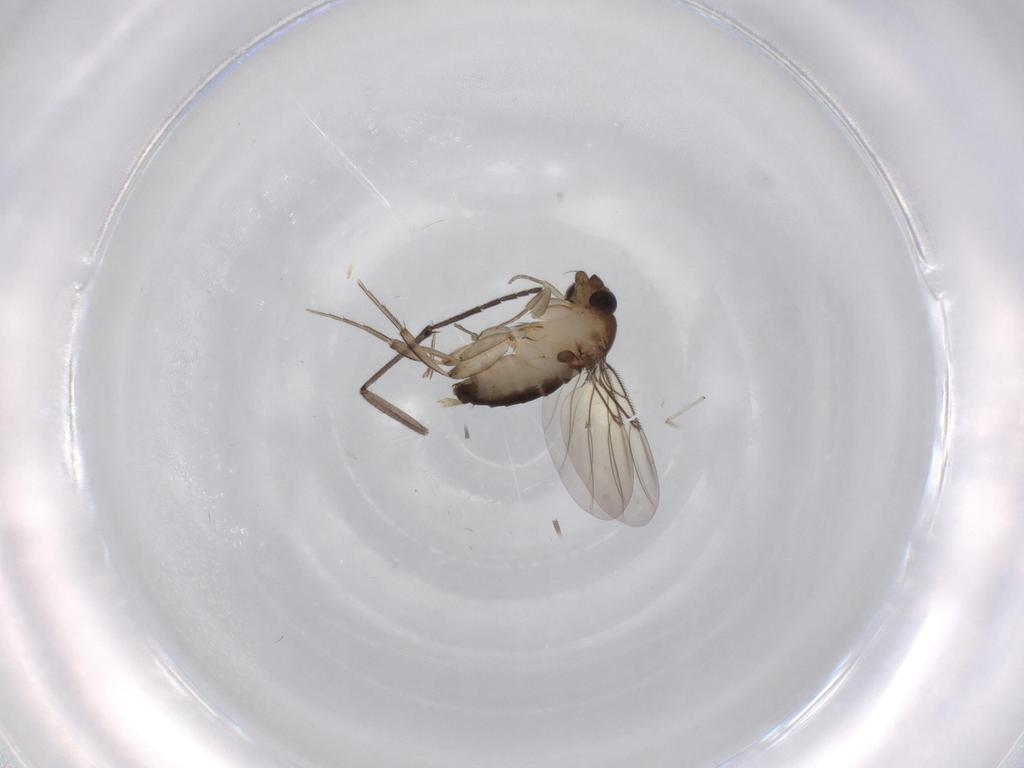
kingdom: Animalia
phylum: Arthropoda
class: Insecta
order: Diptera
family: Phoridae
